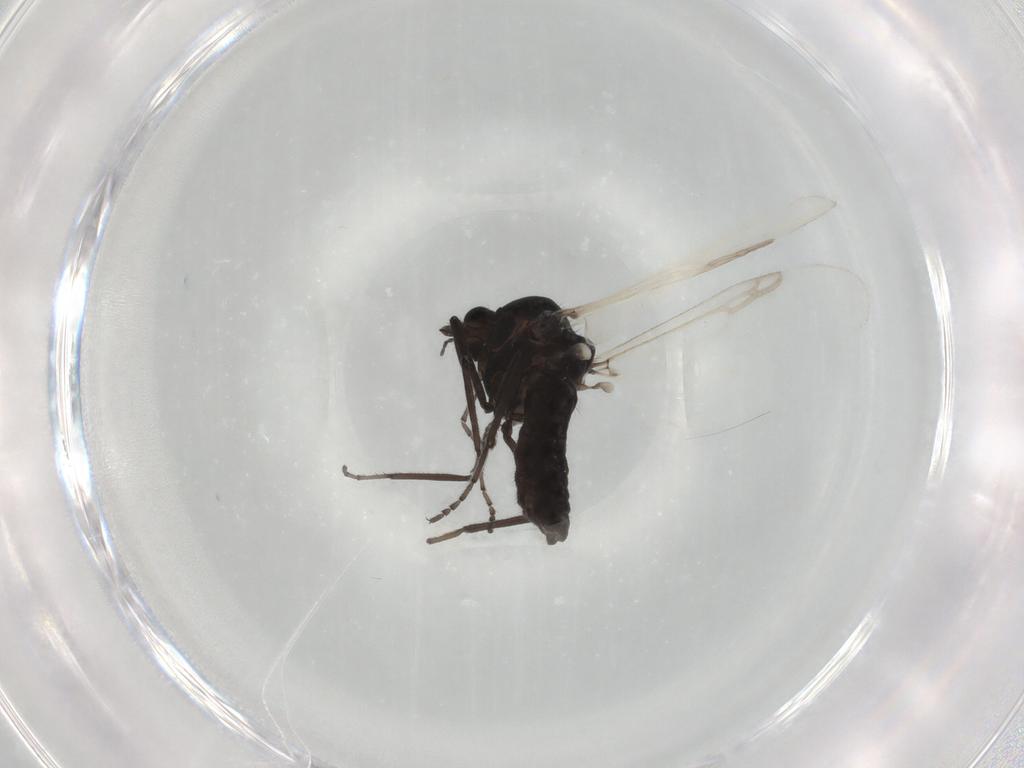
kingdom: Animalia
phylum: Arthropoda
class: Insecta
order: Diptera
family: Ceratopogonidae
